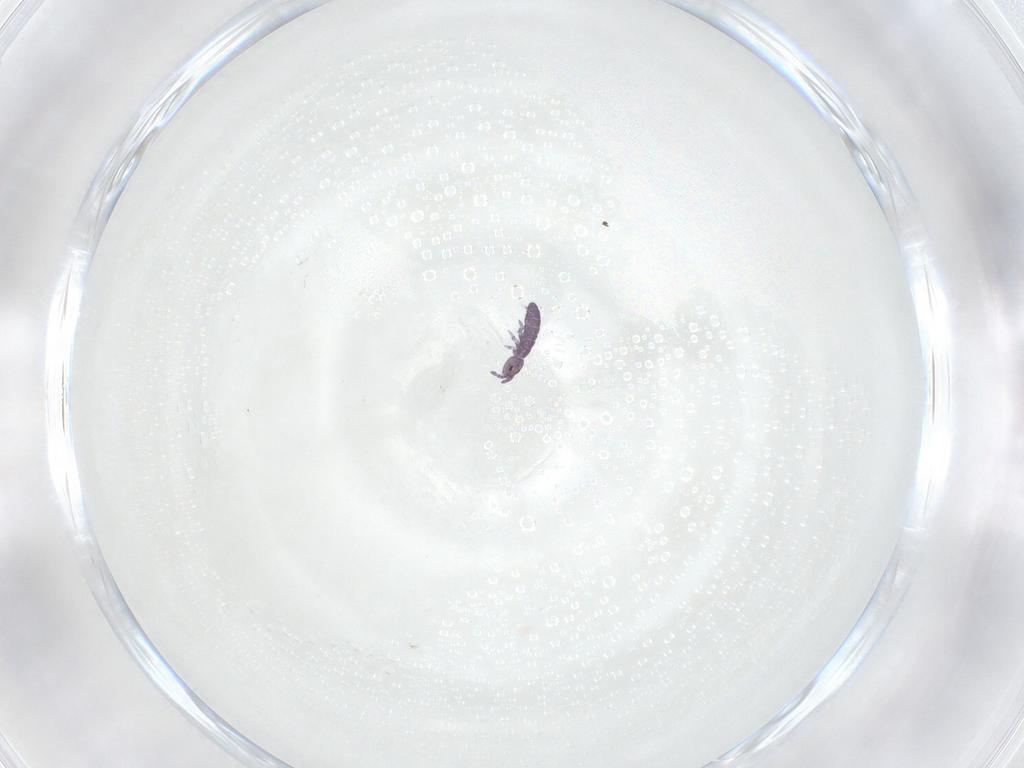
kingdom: Animalia
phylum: Arthropoda
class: Collembola
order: Entomobryomorpha
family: Isotomidae
